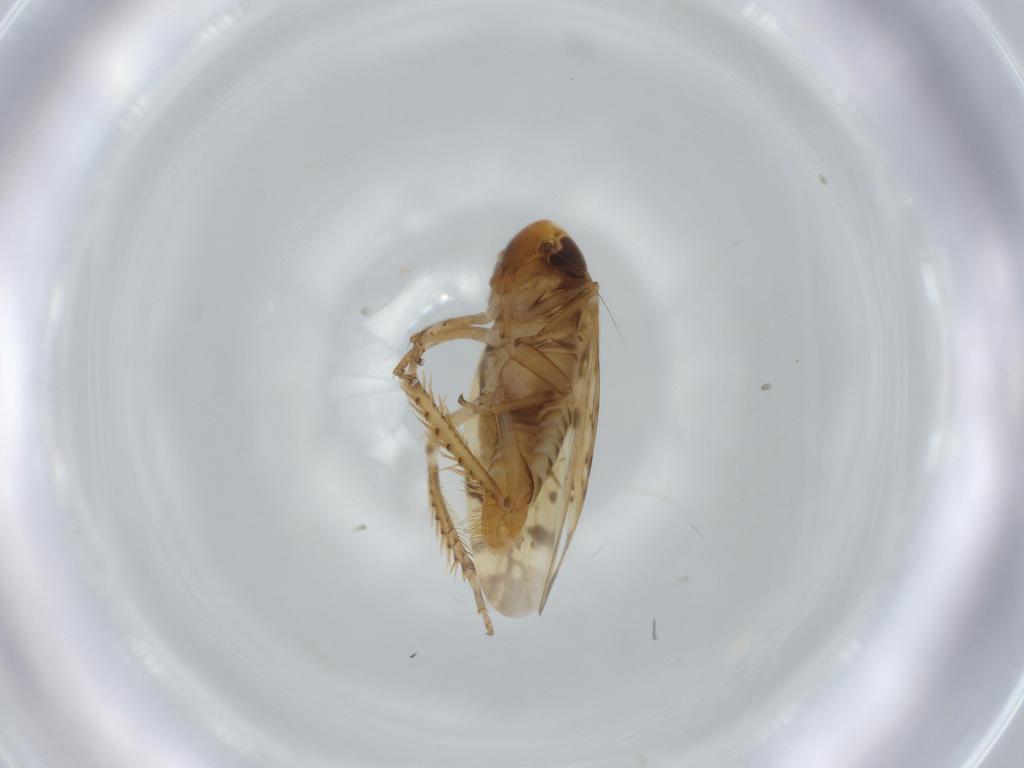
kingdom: Animalia
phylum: Arthropoda
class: Insecta
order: Hemiptera
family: Cicadellidae
